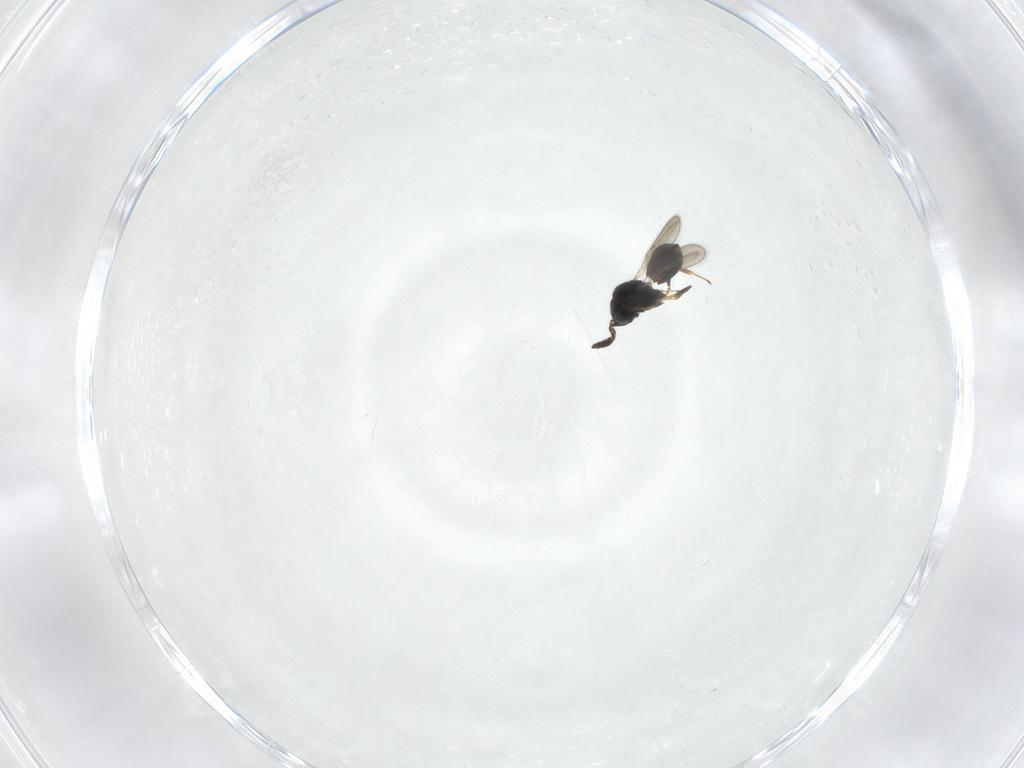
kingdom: Animalia
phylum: Arthropoda
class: Insecta
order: Hymenoptera
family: Scelionidae
